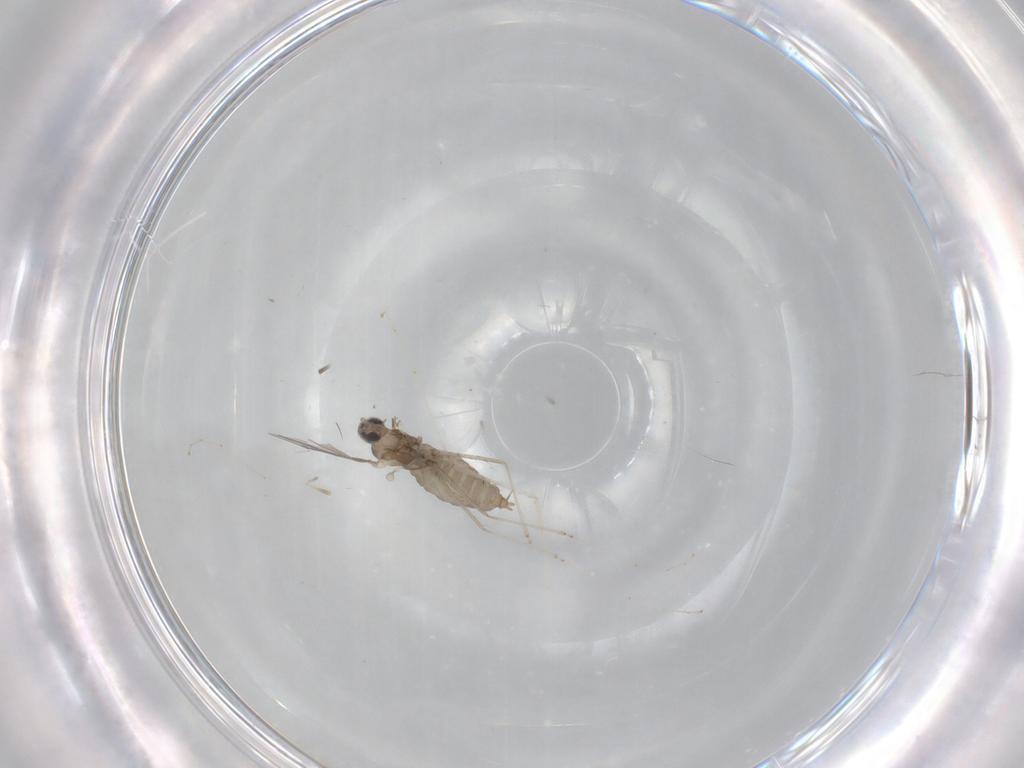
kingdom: Animalia
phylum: Arthropoda
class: Insecta
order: Diptera
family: Cecidomyiidae
